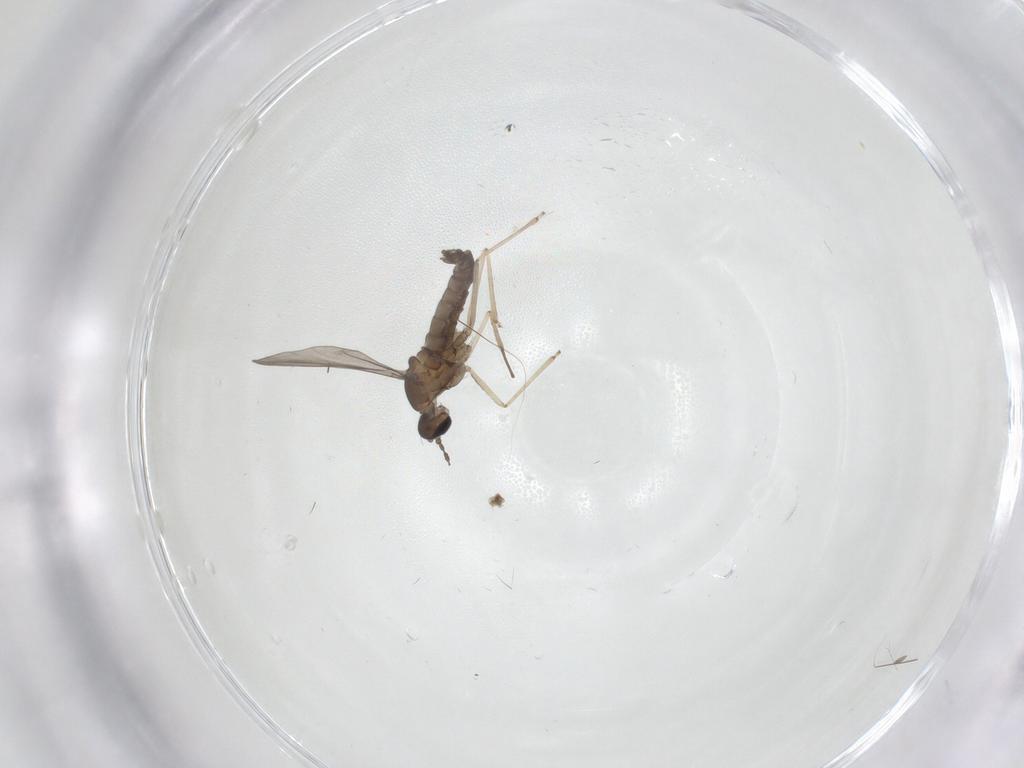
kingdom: Animalia
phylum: Arthropoda
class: Insecta
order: Diptera
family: Cecidomyiidae
